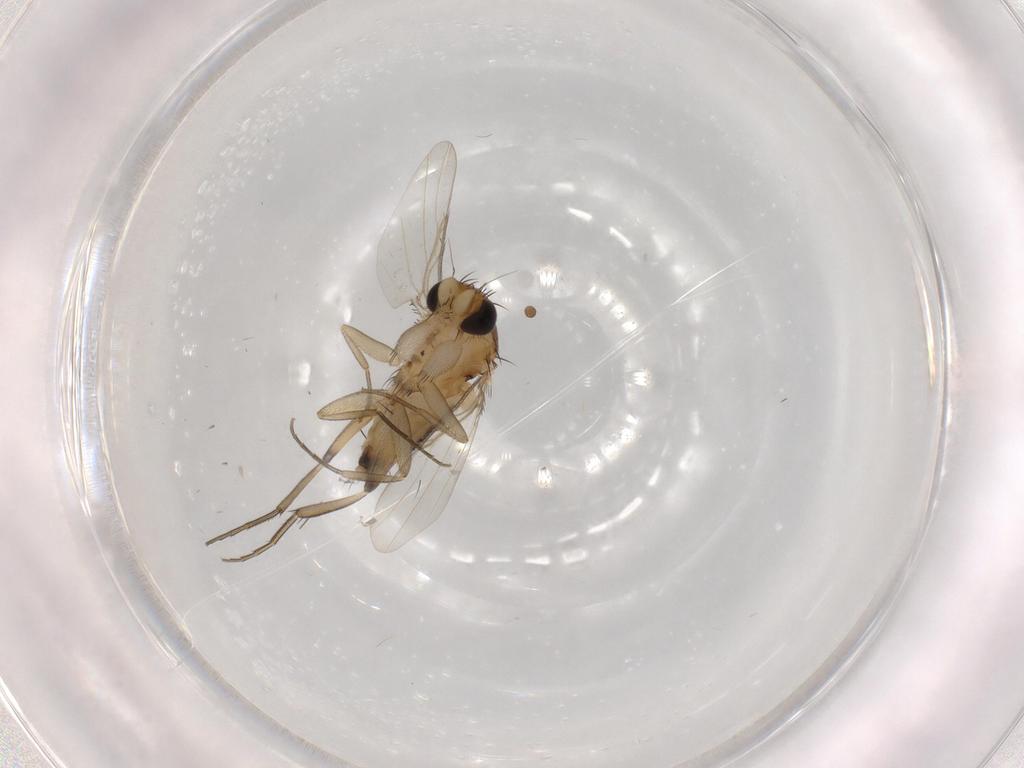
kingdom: Animalia
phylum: Arthropoda
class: Insecta
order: Diptera
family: Phoridae
